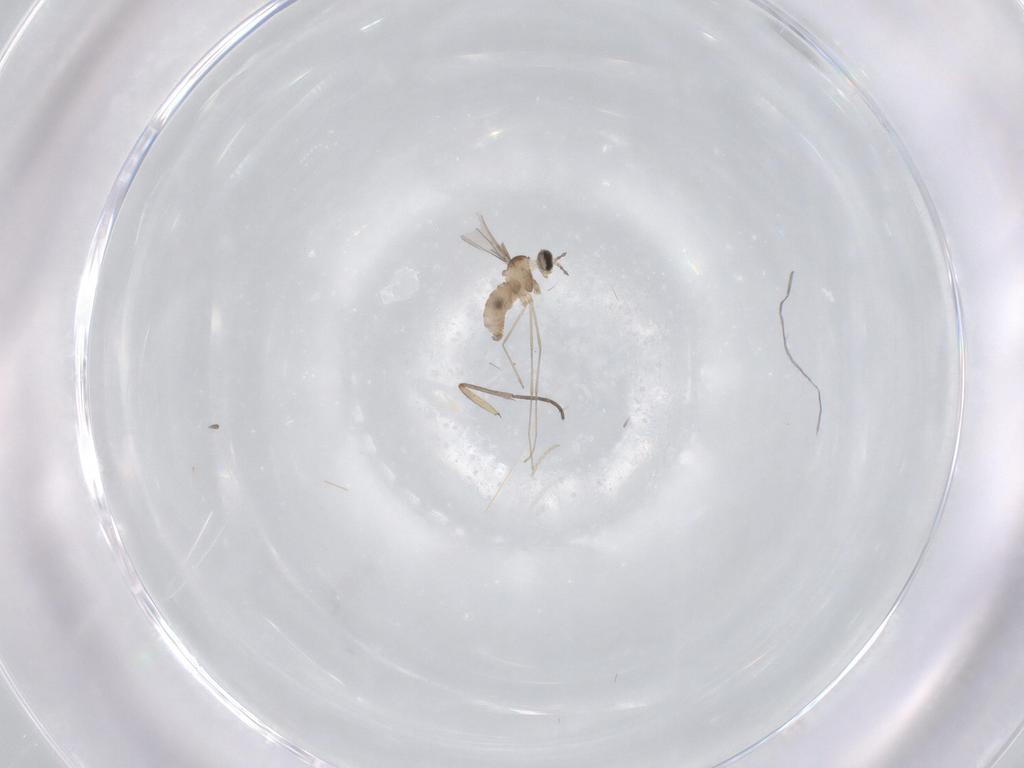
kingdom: Animalia
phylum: Arthropoda
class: Insecta
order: Diptera
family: Cecidomyiidae
